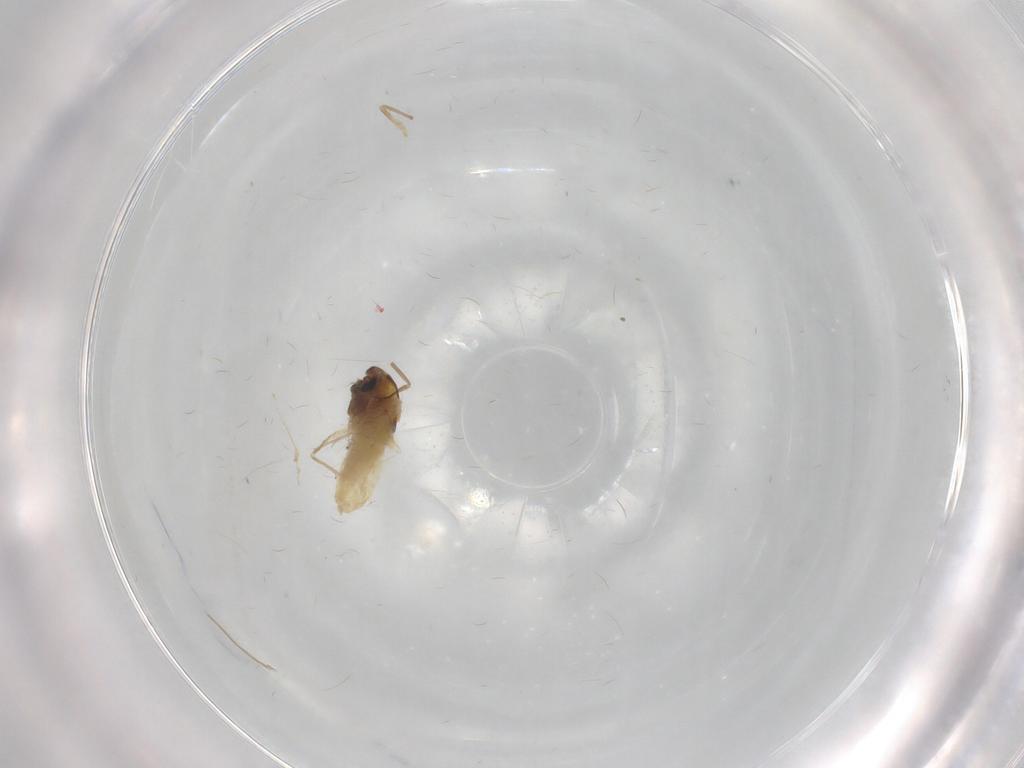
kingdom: Animalia
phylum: Arthropoda
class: Insecta
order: Diptera
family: Chironomidae
